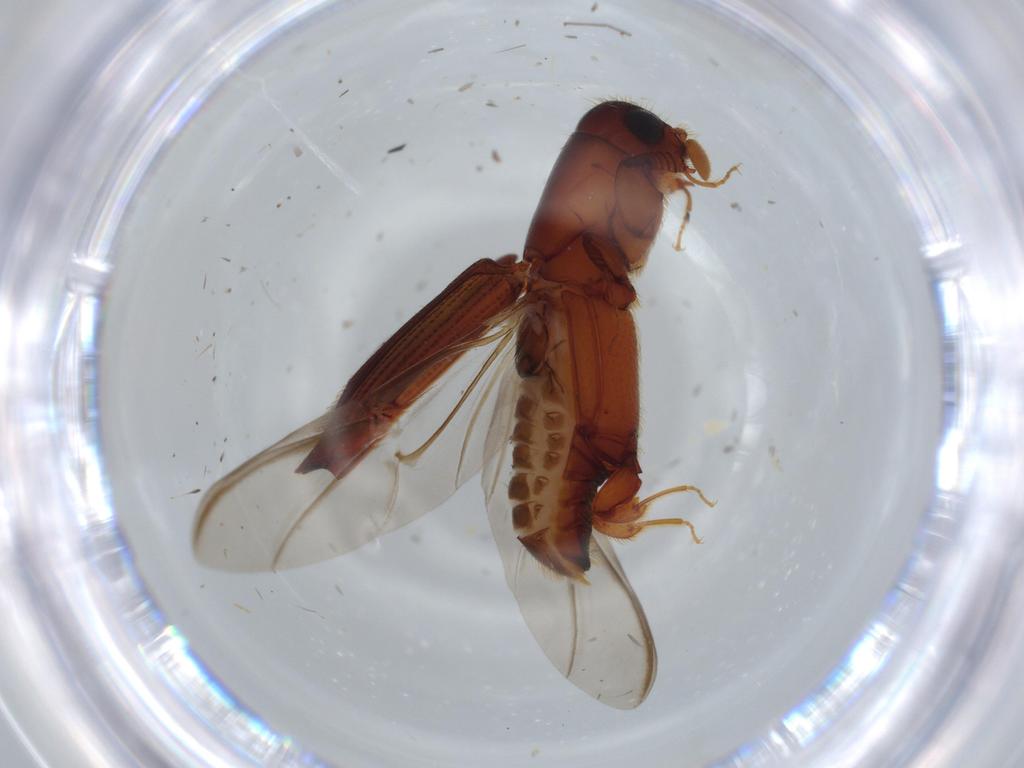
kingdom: Animalia
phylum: Arthropoda
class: Insecta
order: Coleoptera
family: Curculionidae
